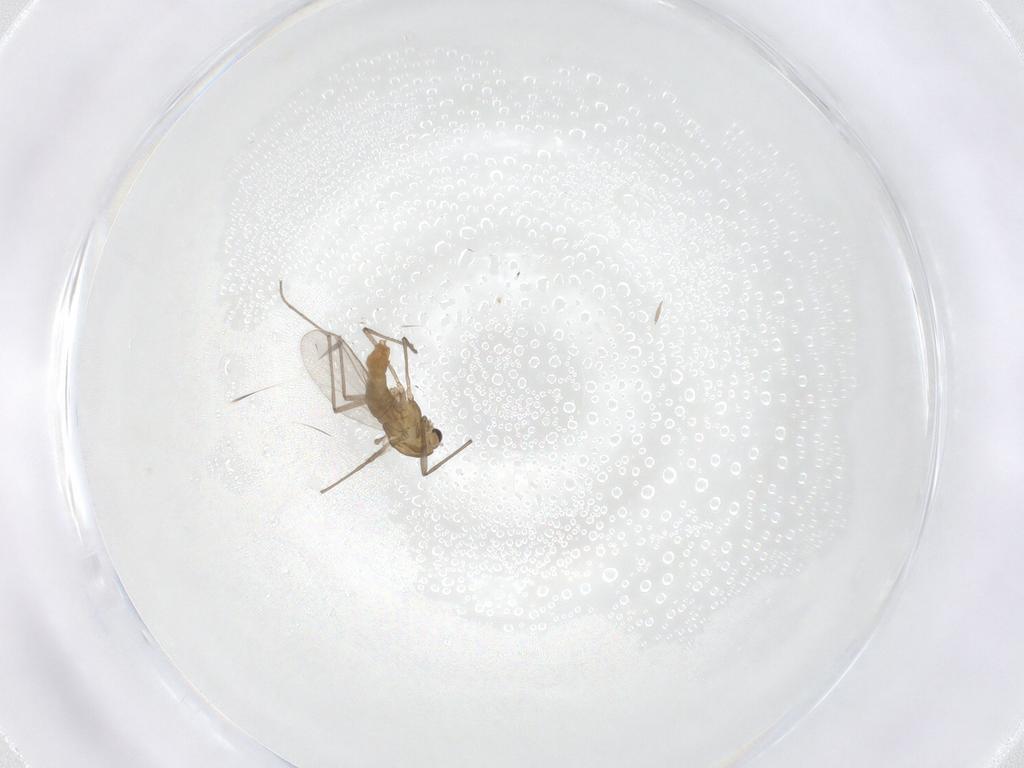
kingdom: Animalia
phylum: Arthropoda
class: Insecta
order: Diptera
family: Chironomidae
